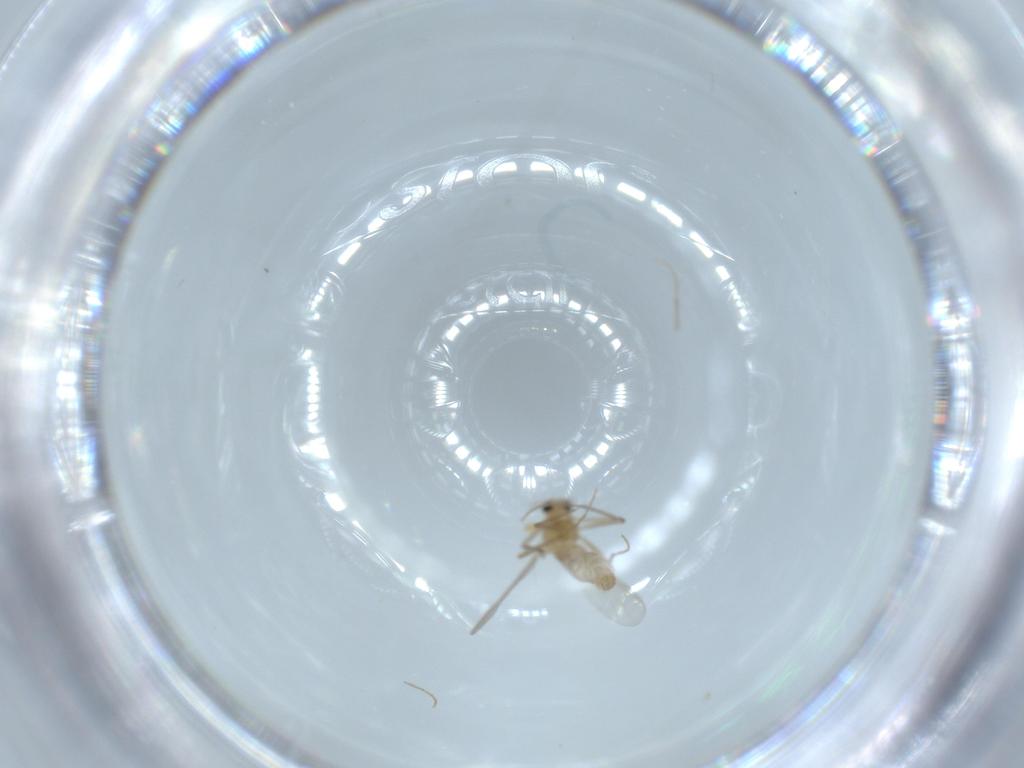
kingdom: Animalia
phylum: Arthropoda
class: Insecta
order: Diptera
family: Chironomidae
